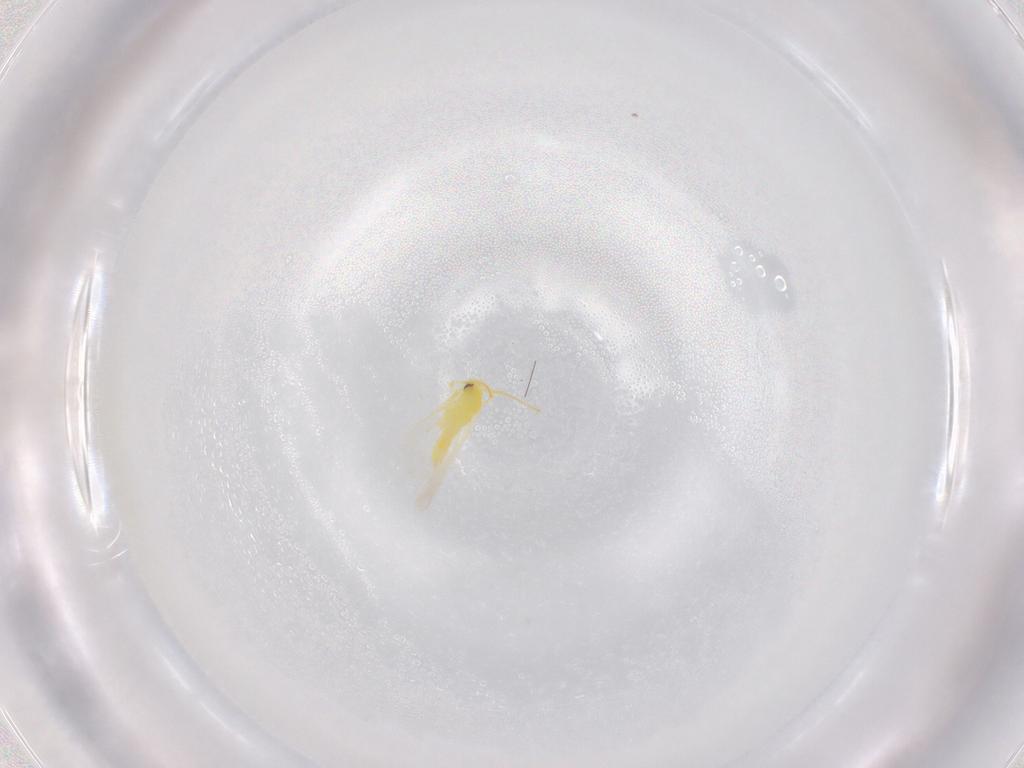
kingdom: Animalia
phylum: Arthropoda
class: Insecta
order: Hemiptera
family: Aleyrodidae
